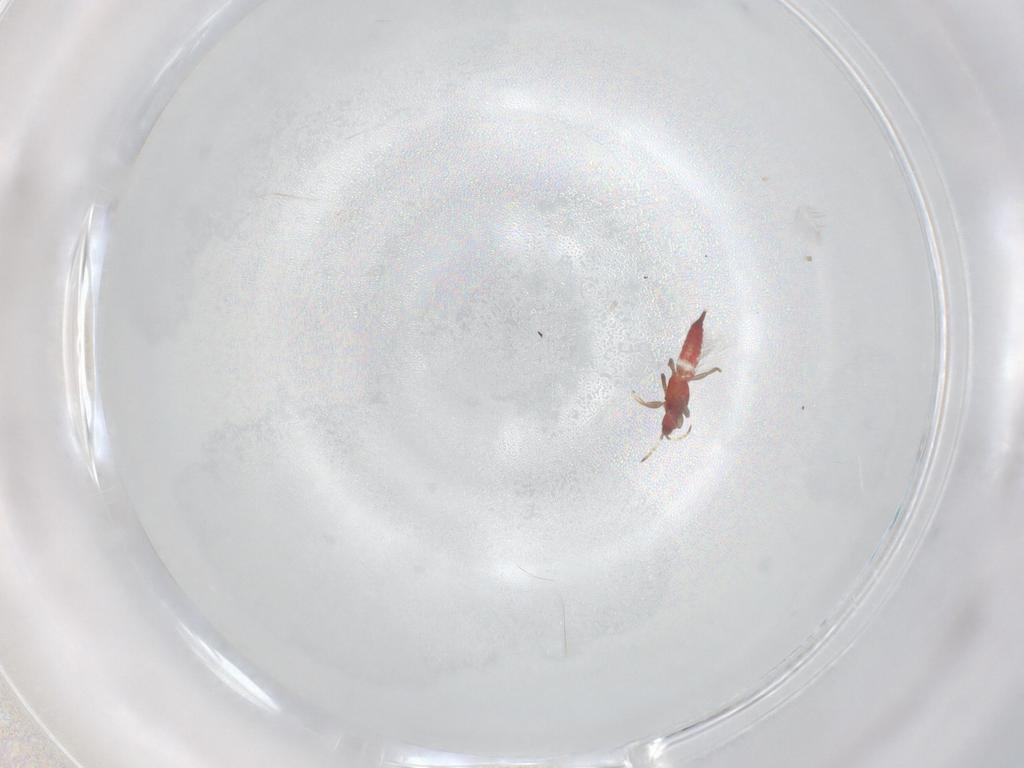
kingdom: Animalia
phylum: Arthropoda
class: Insecta
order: Thysanoptera
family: Phlaeothripidae
